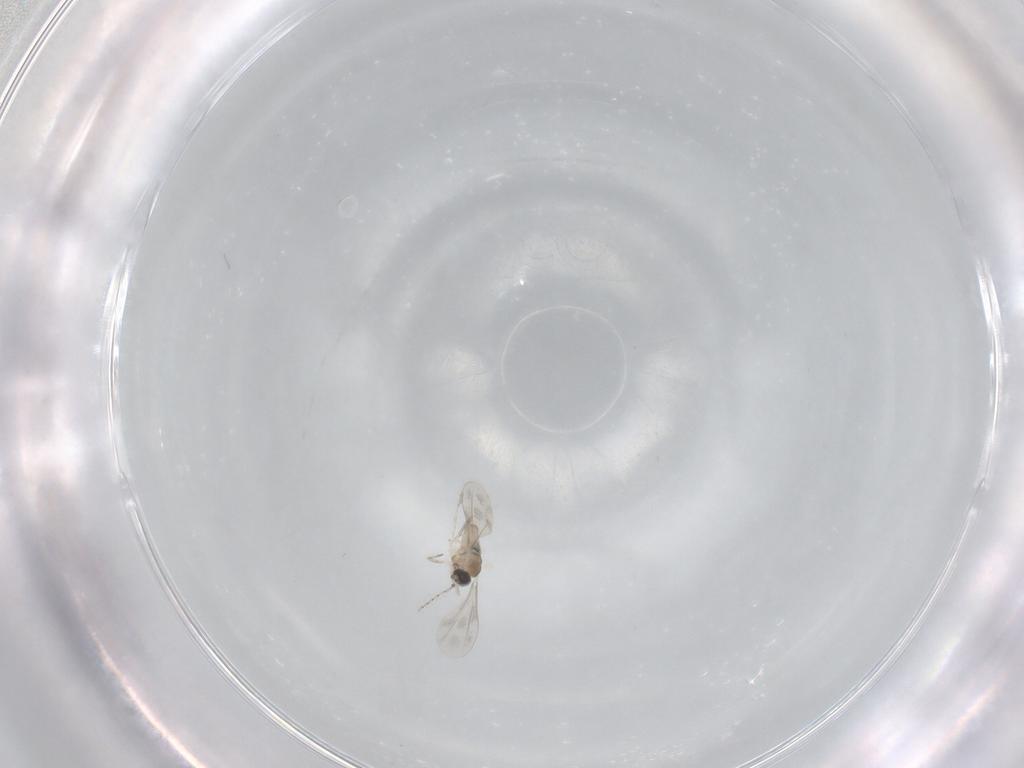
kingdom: Animalia
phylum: Arthropoda
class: Insecta
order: Diptera
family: Cecidomyiidae
